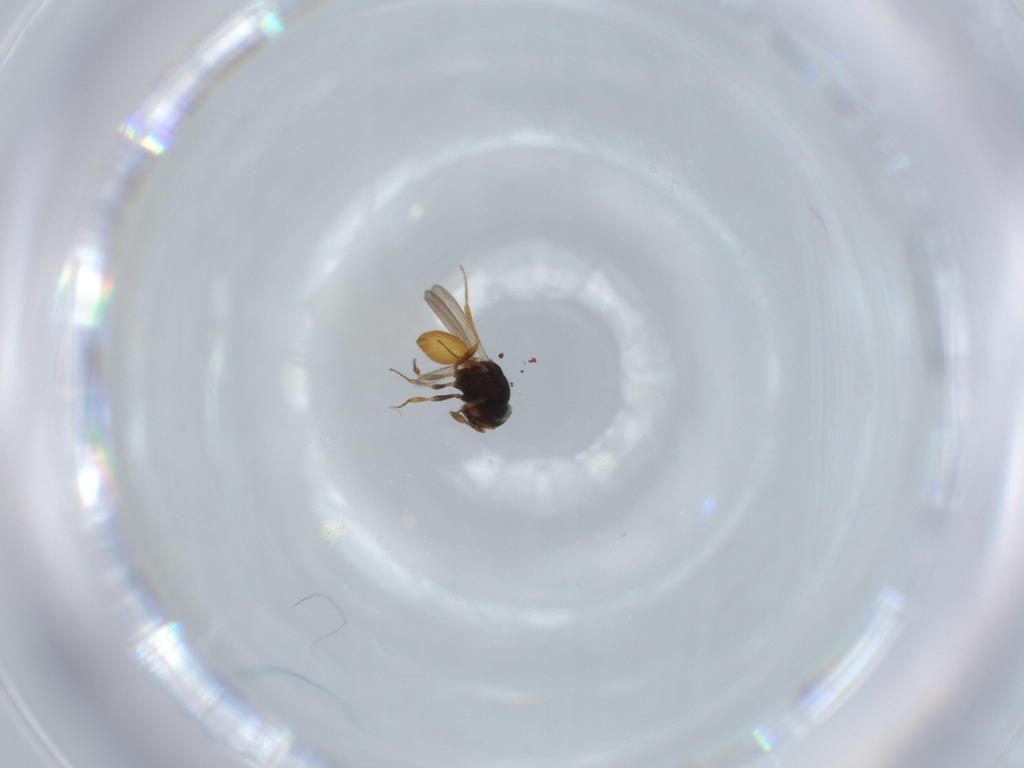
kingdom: Animalia
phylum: Arthropoda
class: Insecta
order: Hymenoptera
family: Scelionidae
